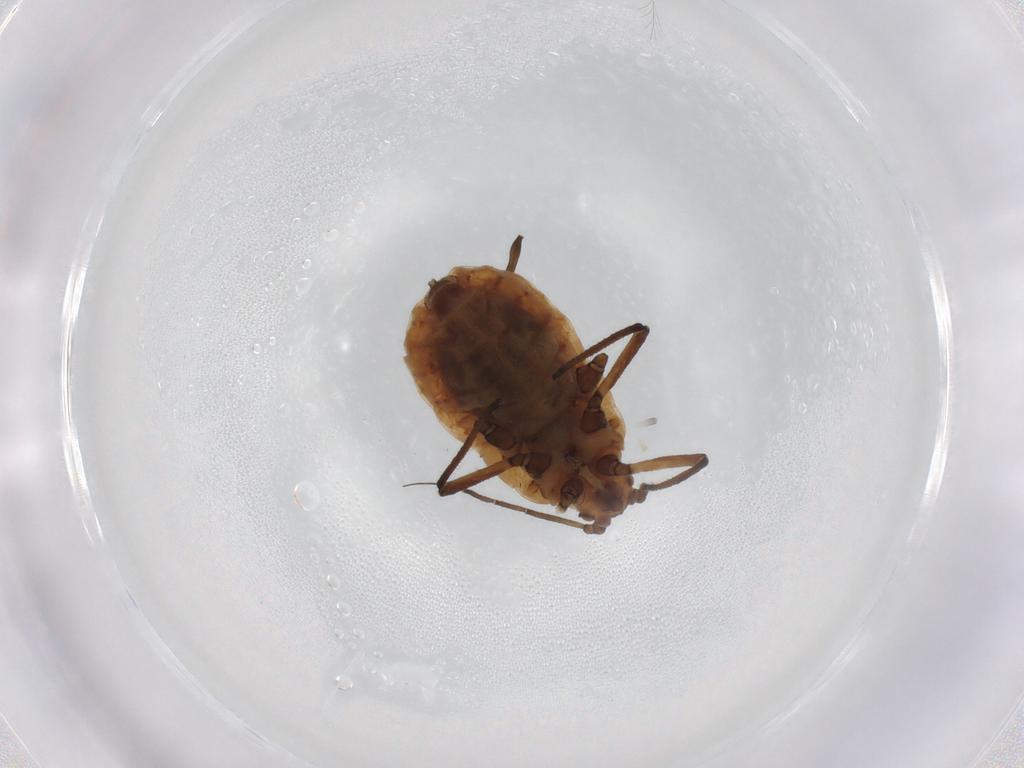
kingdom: Animalia
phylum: Arthropoda
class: Insecta
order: Hemiptera
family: Aphididae
